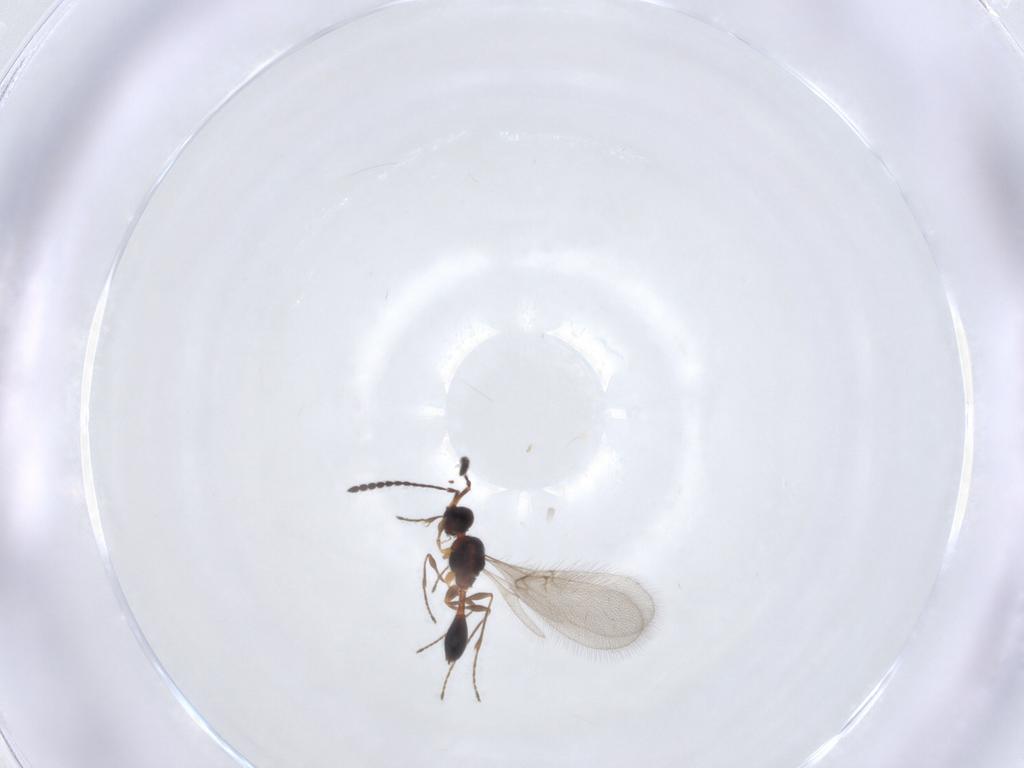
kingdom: Animalia
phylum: Arthropoda
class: Insecta
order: Hymenoptera
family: Diapriidae
